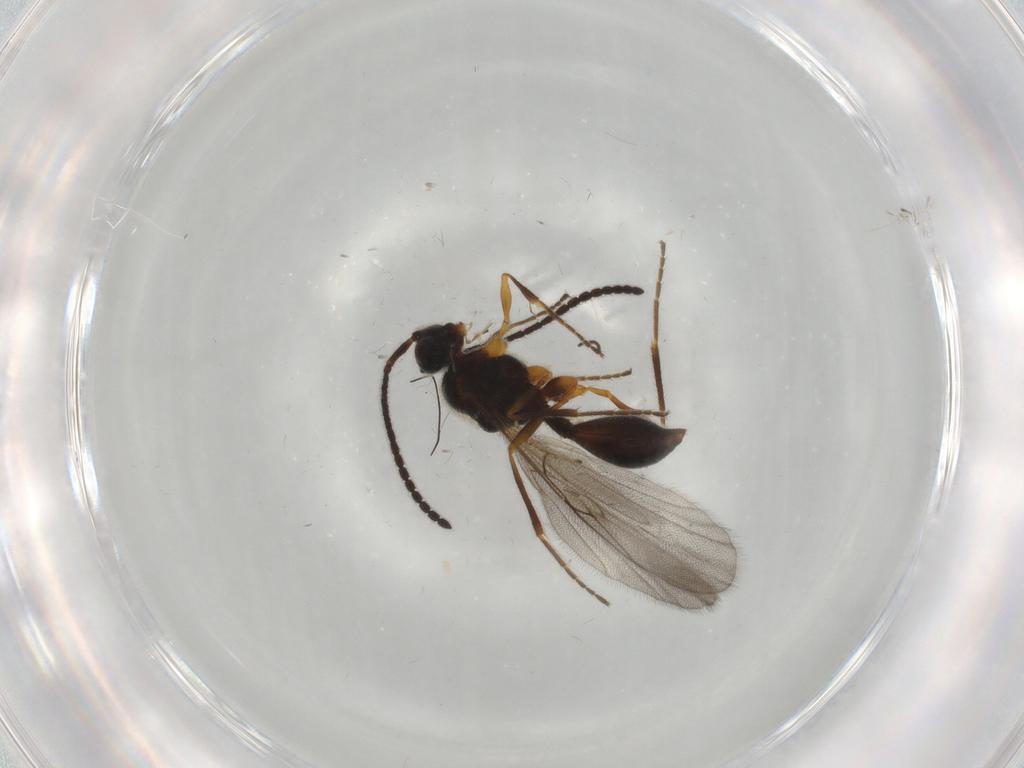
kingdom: Animalia
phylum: Arthropoda
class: Insecta
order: Hymenoptera
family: Diapriidae
